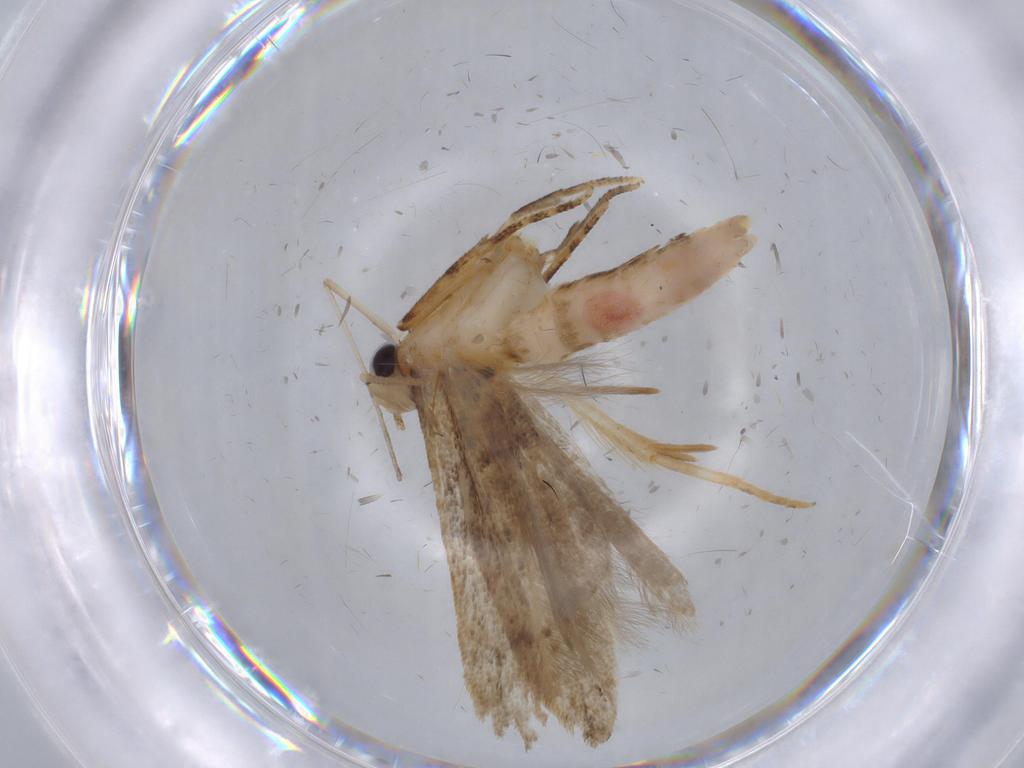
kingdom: Animalia
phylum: Arthropoda
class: Insecta
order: Lepidoptera
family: Gelechiidae
